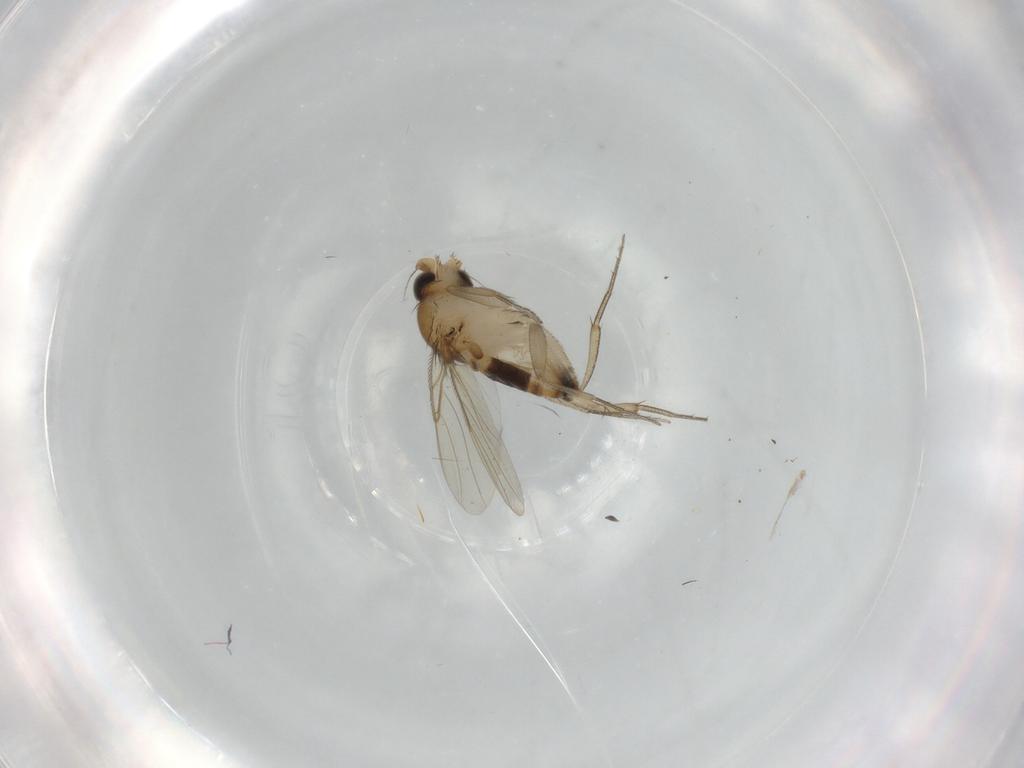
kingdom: Animalia
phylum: Arthropoda
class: Insecta
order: Diptera
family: Phoridae
